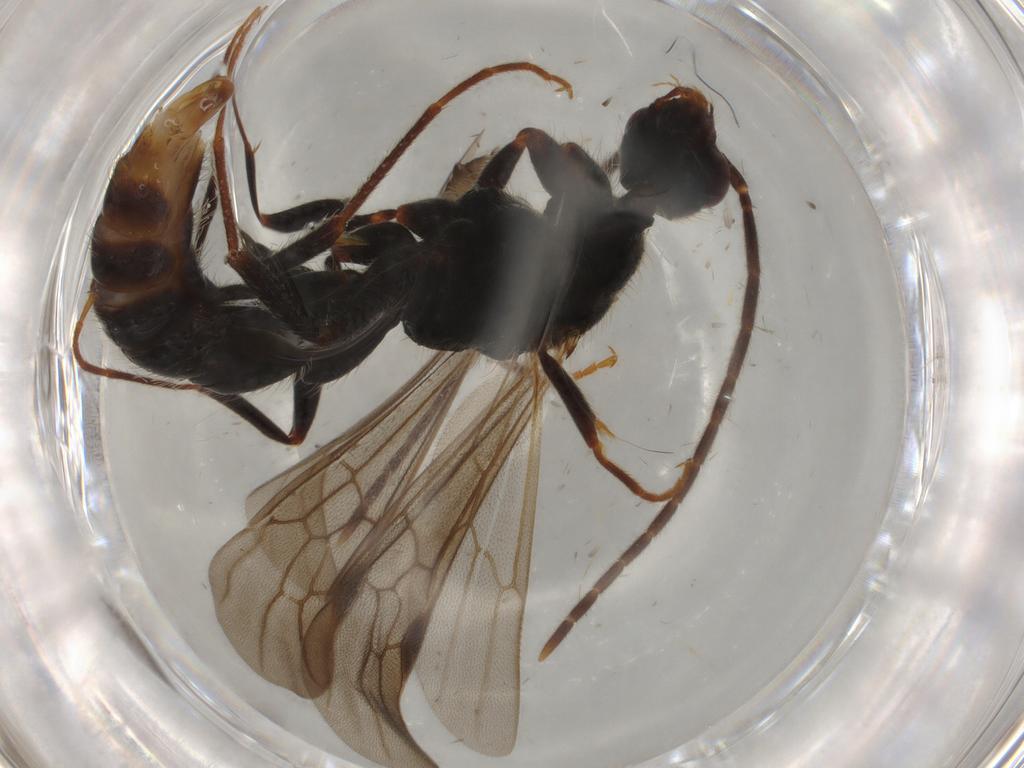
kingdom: Animalia
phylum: Arthropoda
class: Insecta
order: Hymenoptera
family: Formicidae
